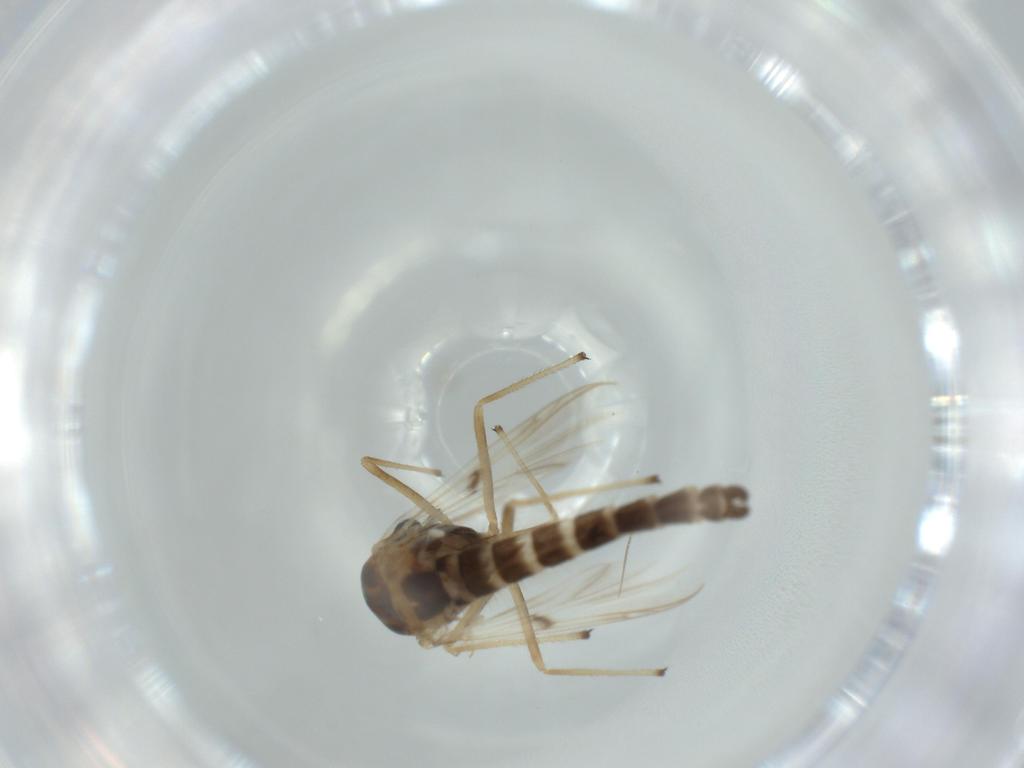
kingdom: Animalia
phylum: Arthropoda
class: Insecta
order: Diptera
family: Chironomidae
